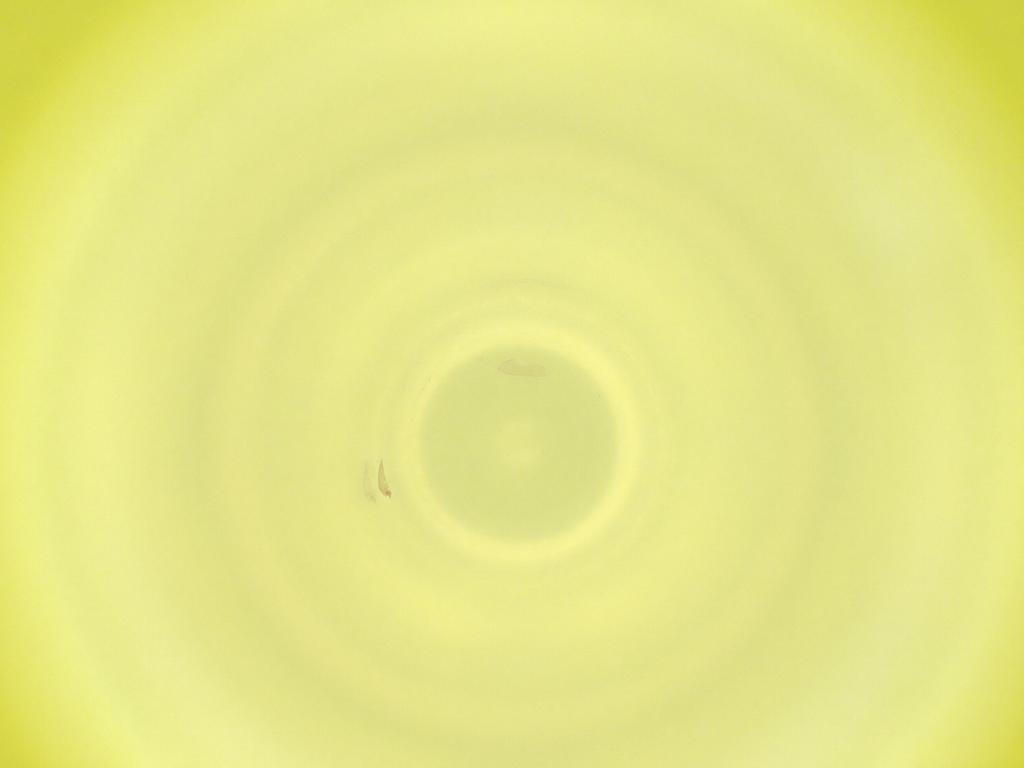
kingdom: Animalia
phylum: Arthropoda
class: Insecta
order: Diptera
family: Cecidomyiidae
